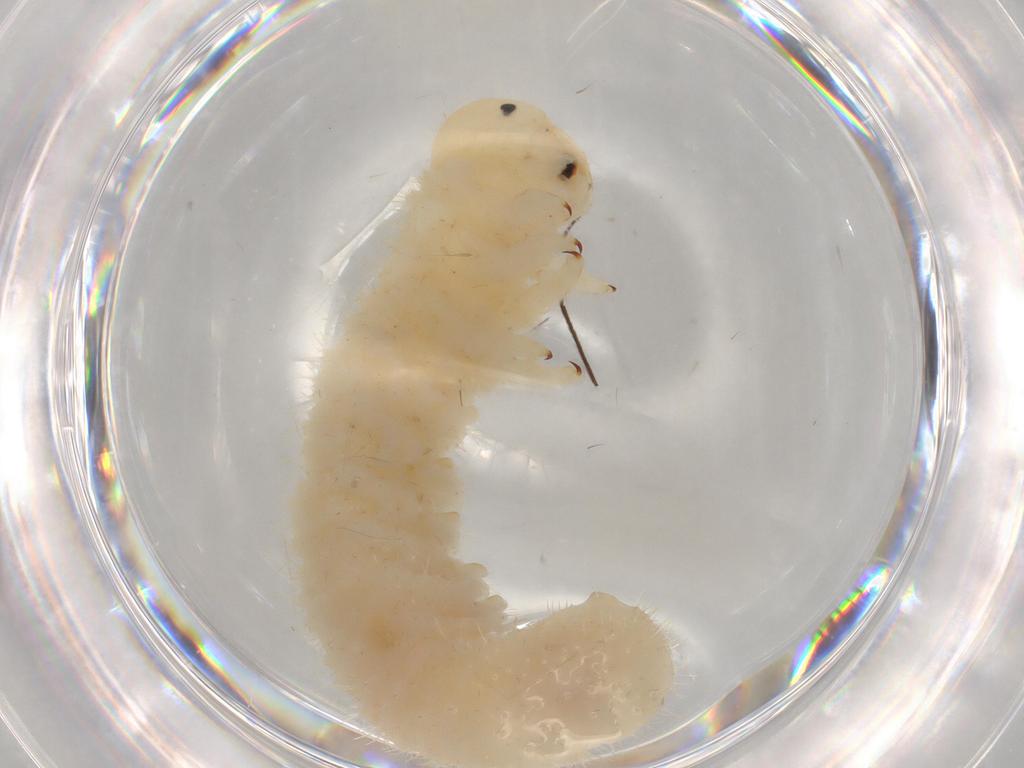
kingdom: Animalia
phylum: Arthropoda
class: Insecta
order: Hymenoptera
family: Tenthredinidae
